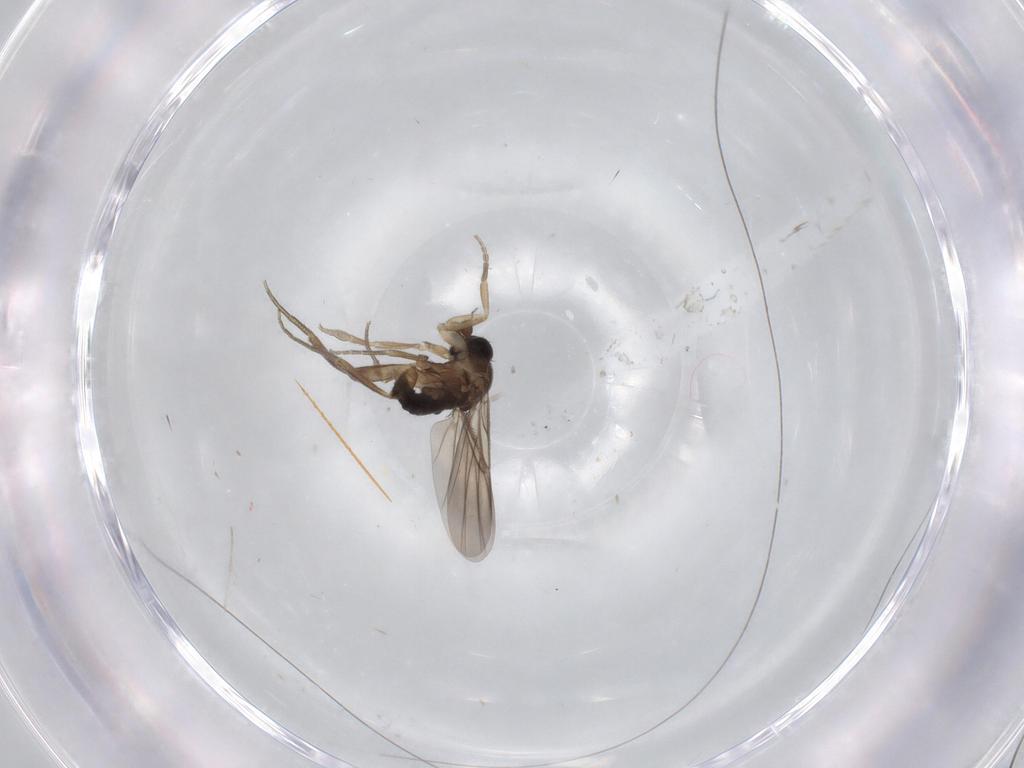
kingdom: Animalia
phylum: Arthropoda
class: Insecta
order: Diptera
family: Phoridae
